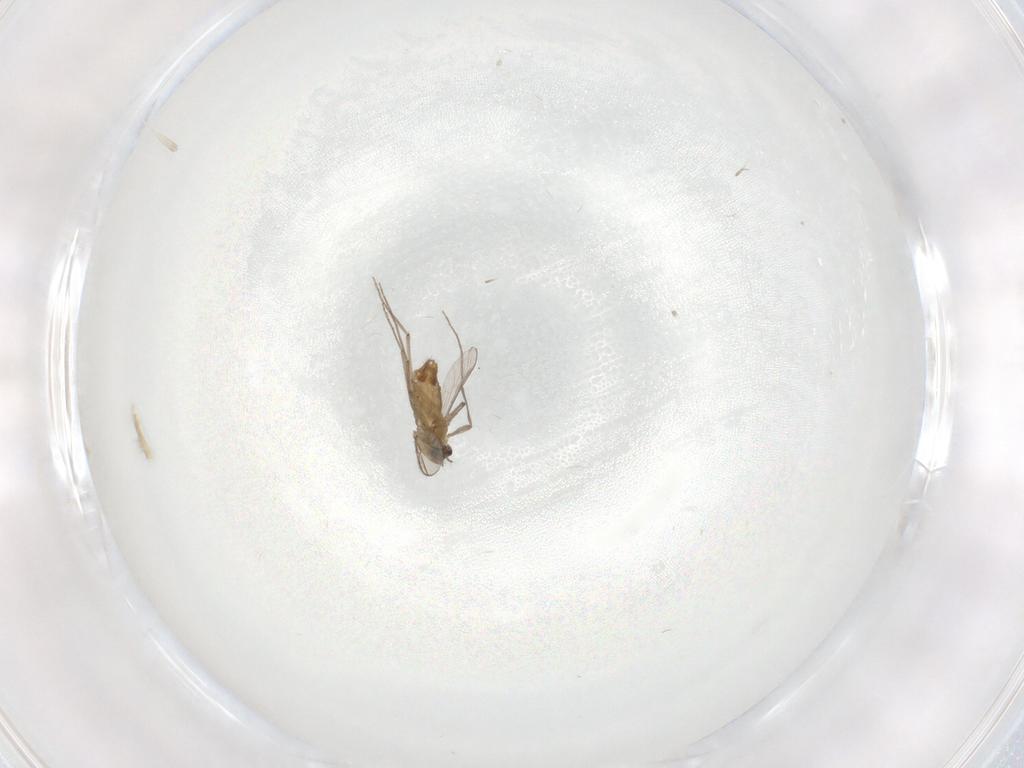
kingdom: Animalia
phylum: Arthropoda
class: Insecta
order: Diptera
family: Chironomidae
